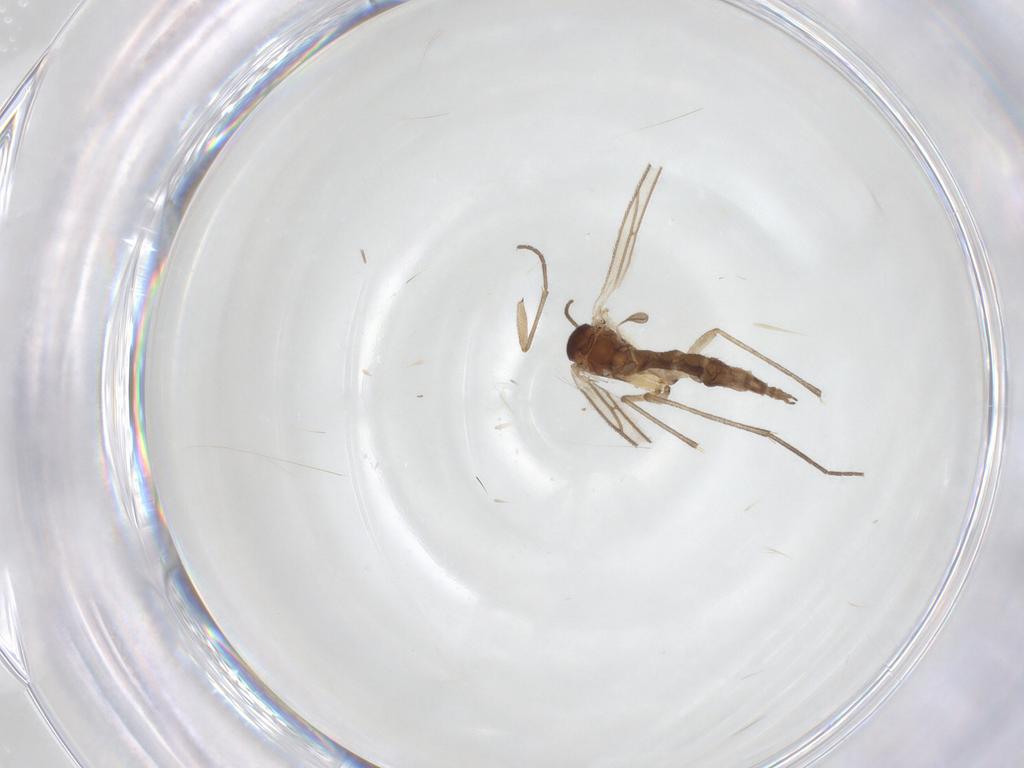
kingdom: Animalia
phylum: Arthropoda
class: Insecta
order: Diptera
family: Sciaridae
